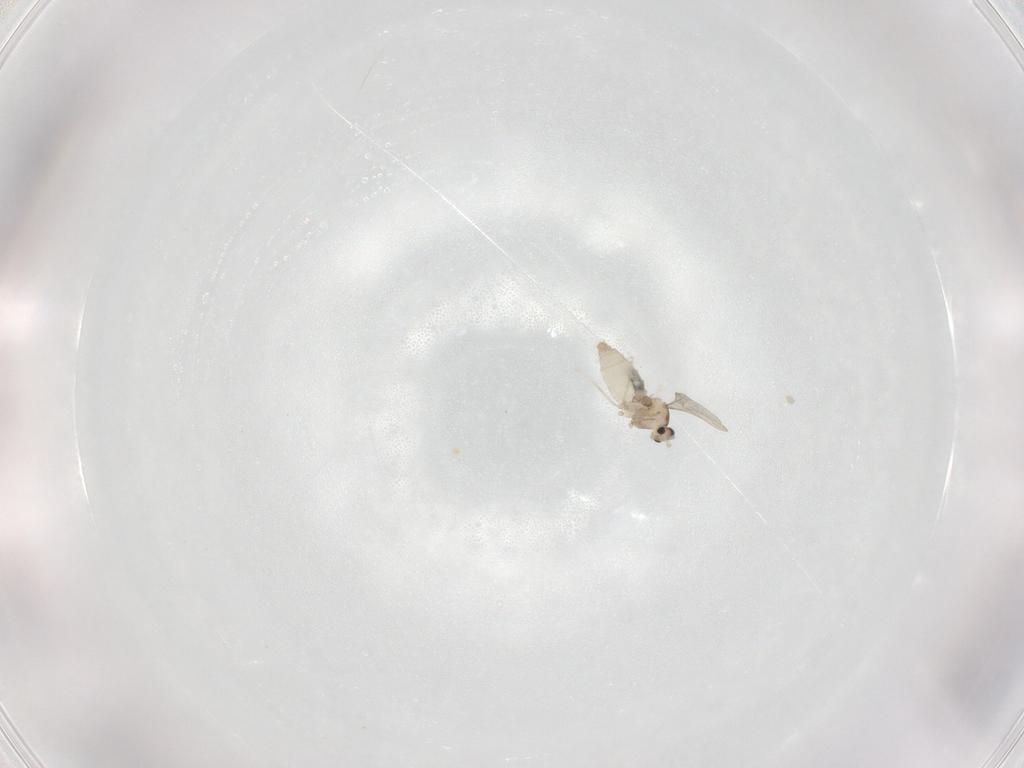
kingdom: Animalia
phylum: Arthropoda
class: Insecta
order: Diptera
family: Cecidomyiidae
